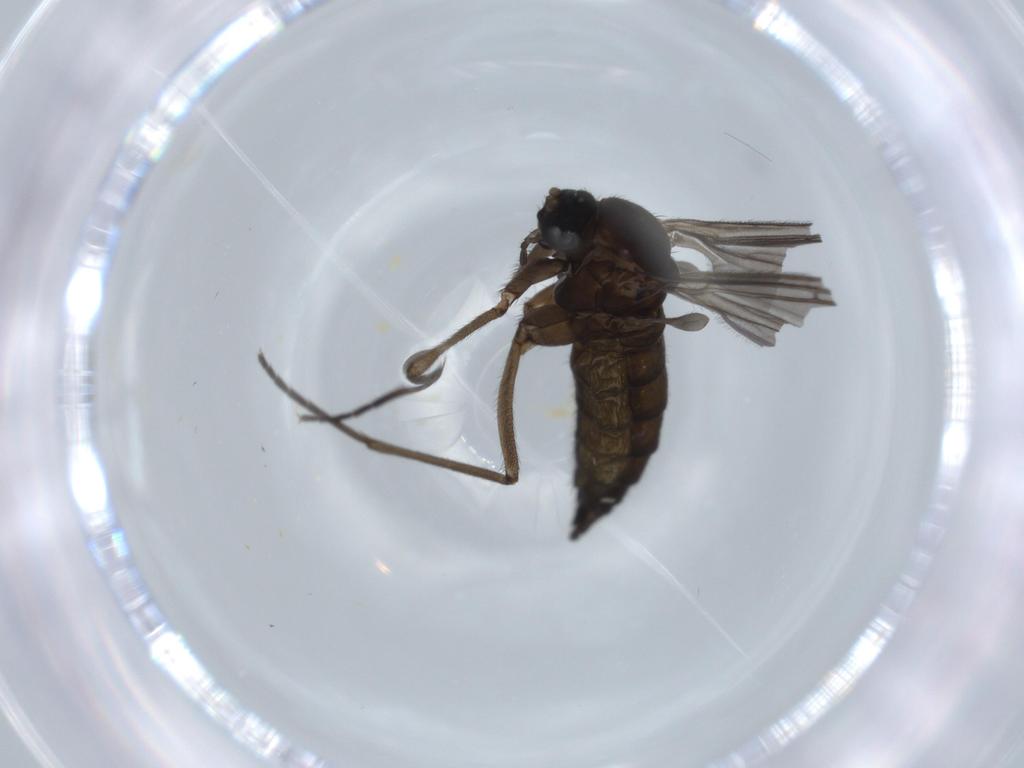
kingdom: Animalia
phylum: Arthropoda
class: Insecta
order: Diptera
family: Sciaridae
